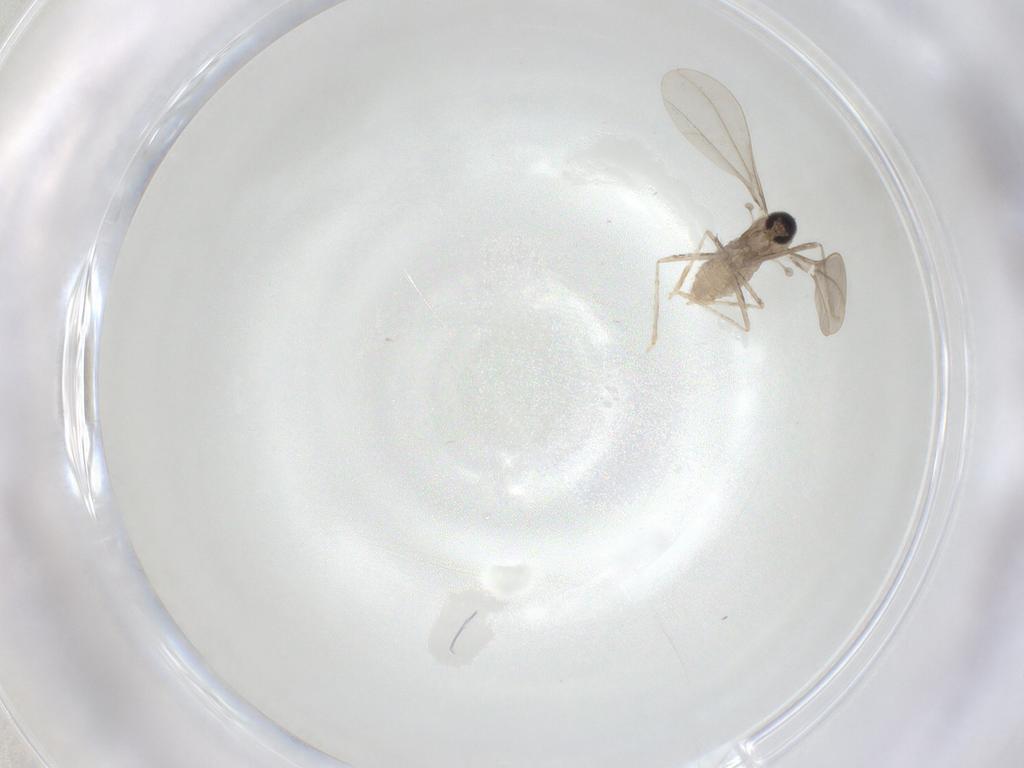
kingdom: Animalia
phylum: Arthropoda
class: Insecta
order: Diptera
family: Cecidomyiidae
